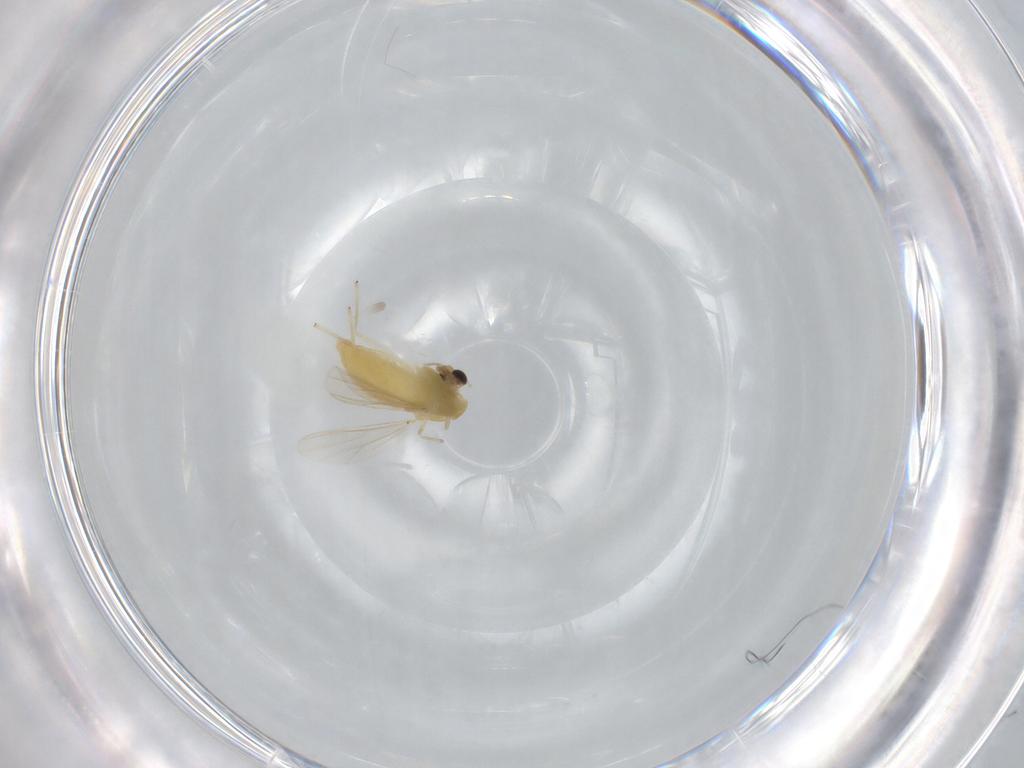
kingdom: Animalia
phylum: Arthropoda
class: Insecta
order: Diptera
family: Chironomidae
